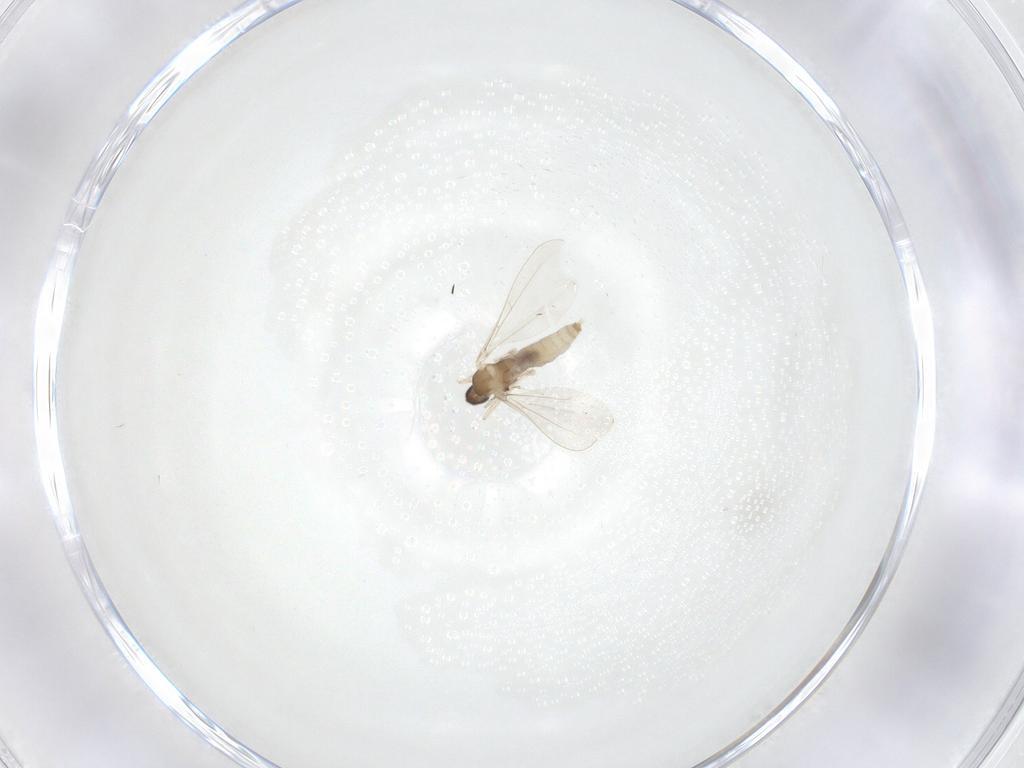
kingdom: Animalia
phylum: Arthropoda
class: Insecta
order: Diptera
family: Cecidomyiidae
